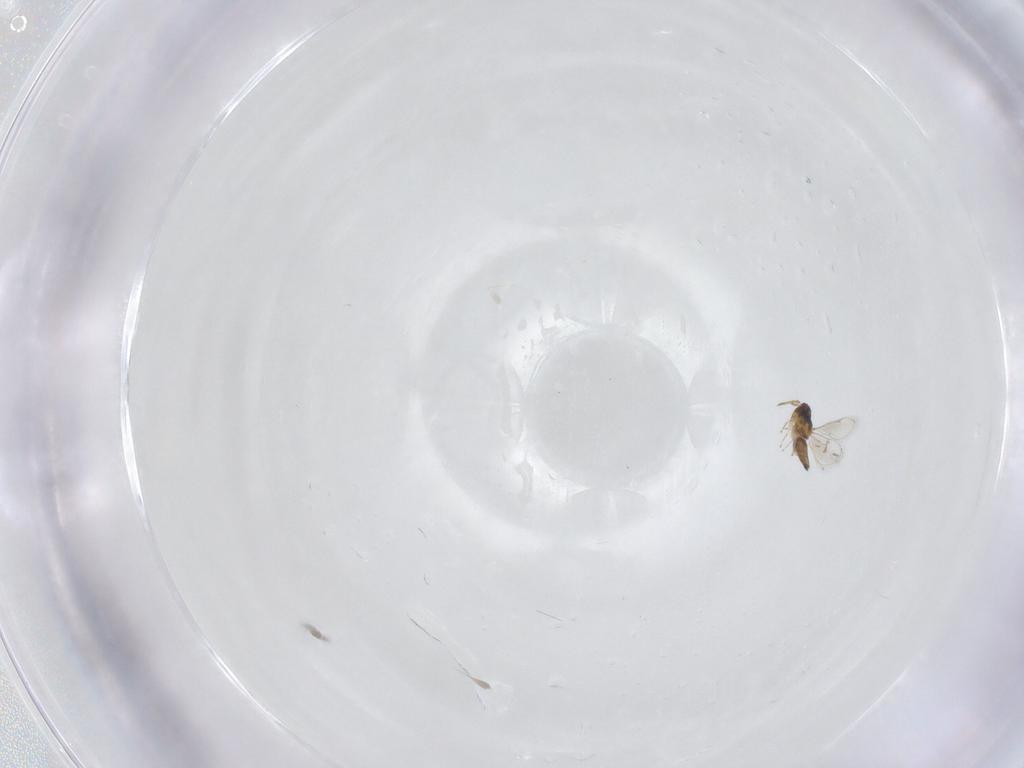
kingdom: Animalia
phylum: Arthropoda
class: Insecta
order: Hymenoptera
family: Eulophidae
